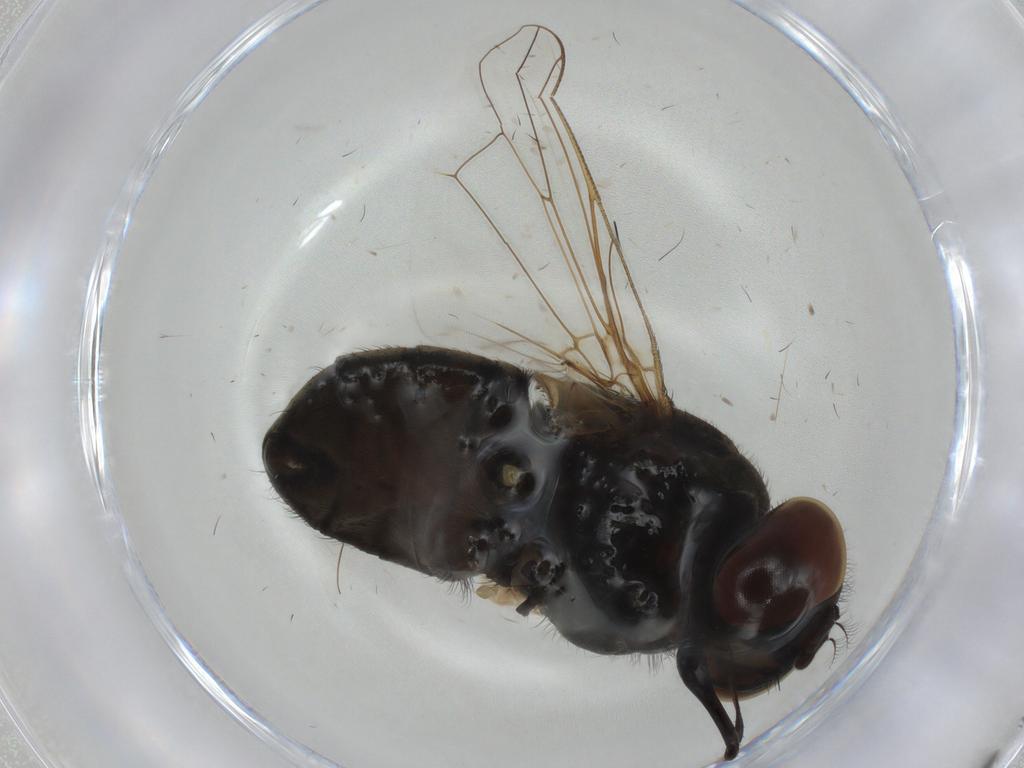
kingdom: Animalia
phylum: Arthropoda
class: Insecta
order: Diptera
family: Muscidae
